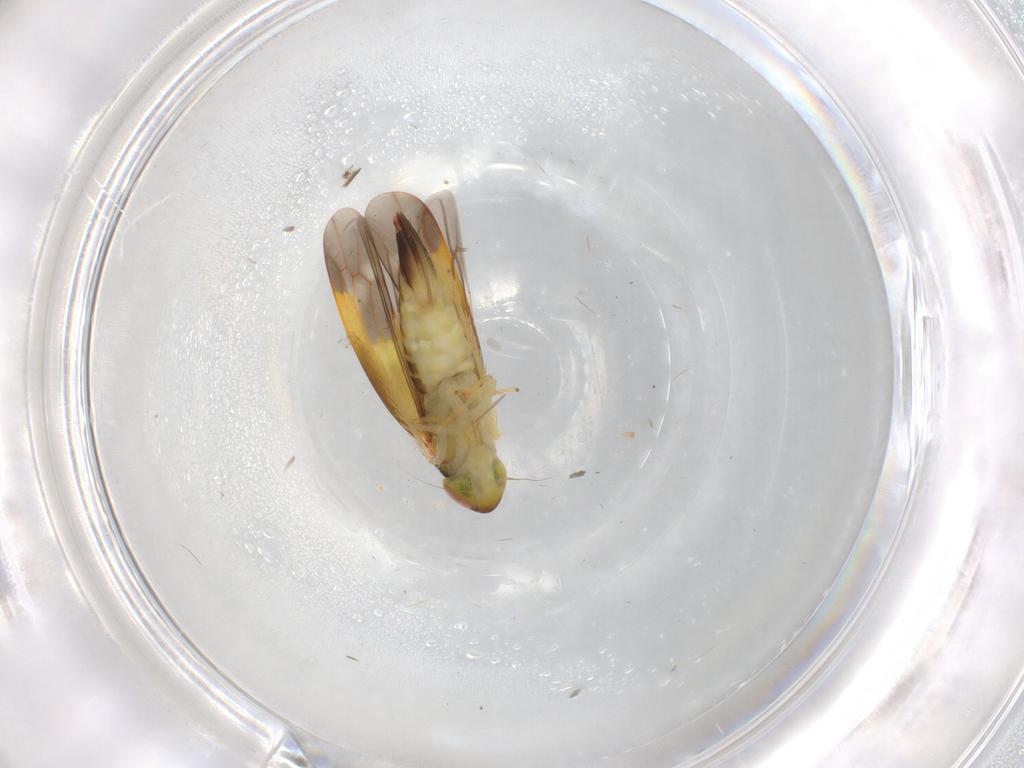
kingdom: Animalia
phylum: Arthropoda
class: Insecta
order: Hemiptera
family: Cicadellidae
